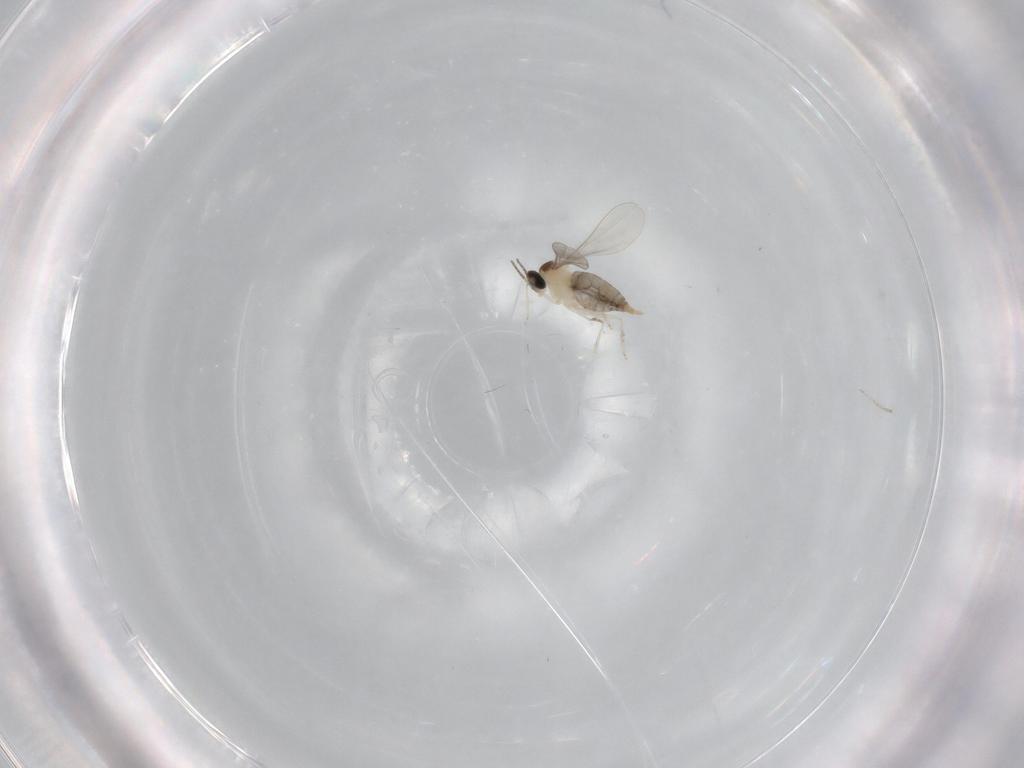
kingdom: Animalia
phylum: Arthropoda
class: Insecta
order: Diptera
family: Cecidomyiidae
